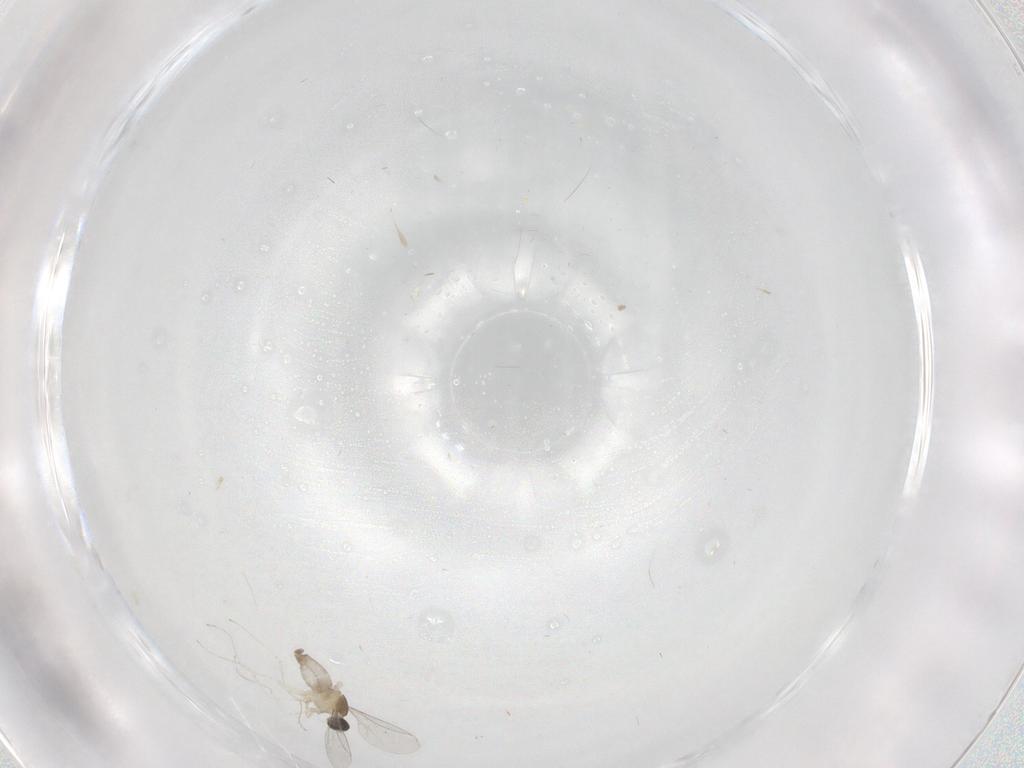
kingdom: Animalia
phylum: Arthropoda
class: Insecta
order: Diptera
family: Cecidomyiidae
